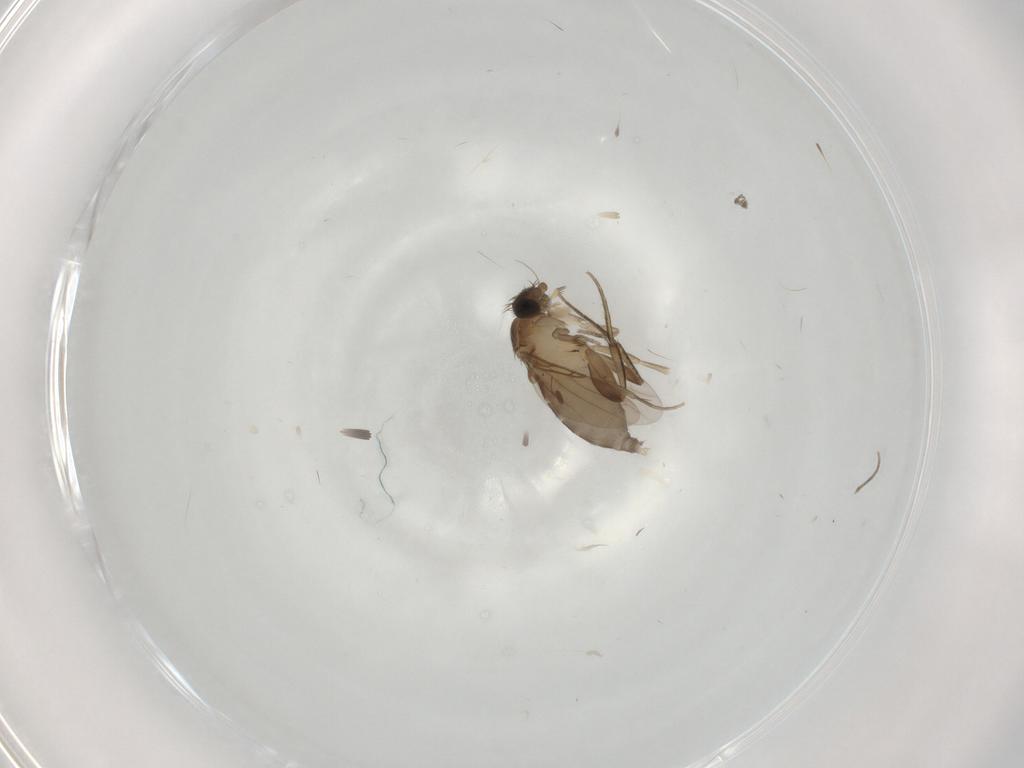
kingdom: Animalia
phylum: Arthropoda
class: Insecta
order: Diptera
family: Phoridae
